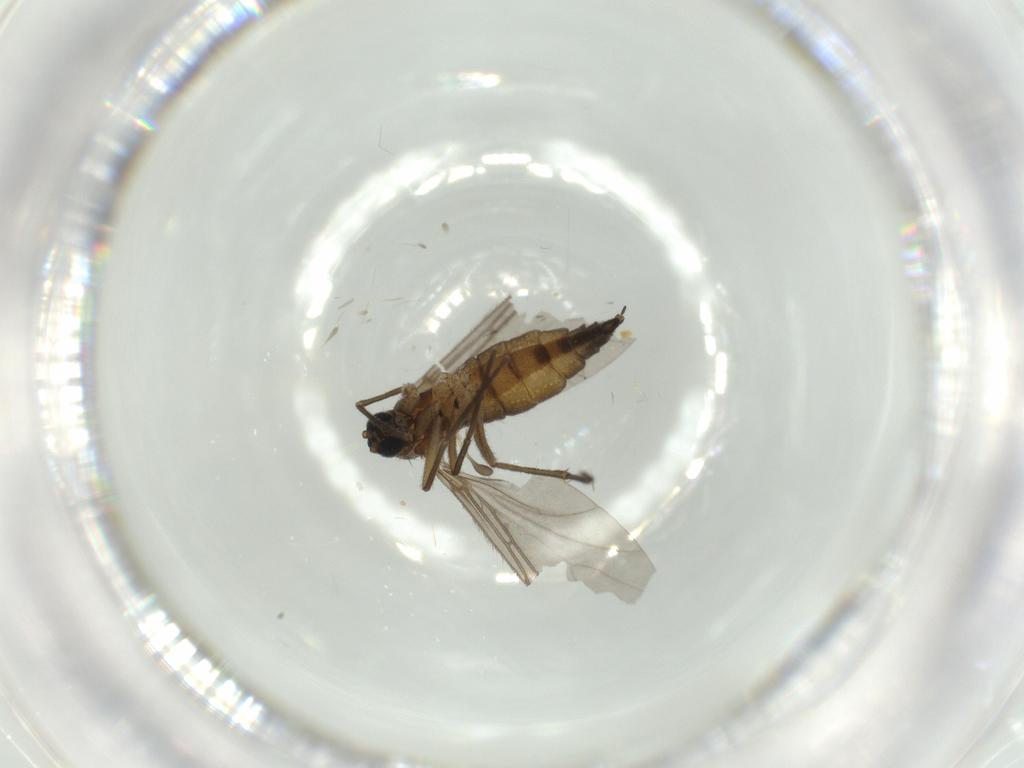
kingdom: Animalia
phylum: Arthropoda
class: Insecta
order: Diptera
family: Sciaridae
